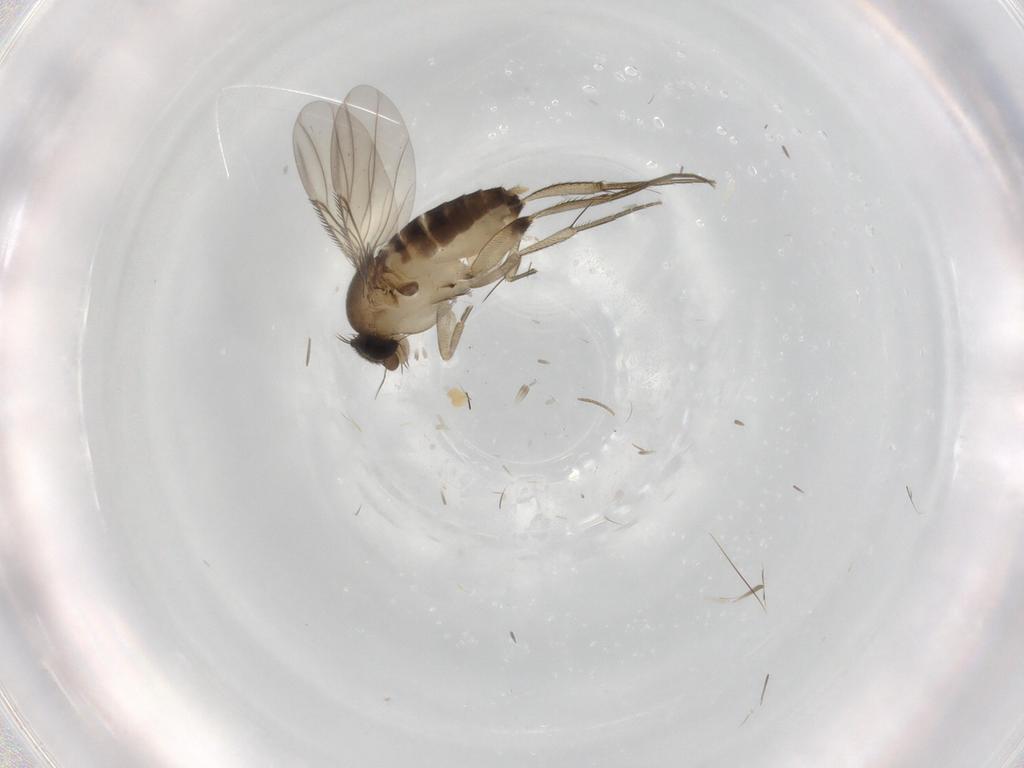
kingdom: Animalia
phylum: Arthropoda
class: Insecta
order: Diptera
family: Phoridae
